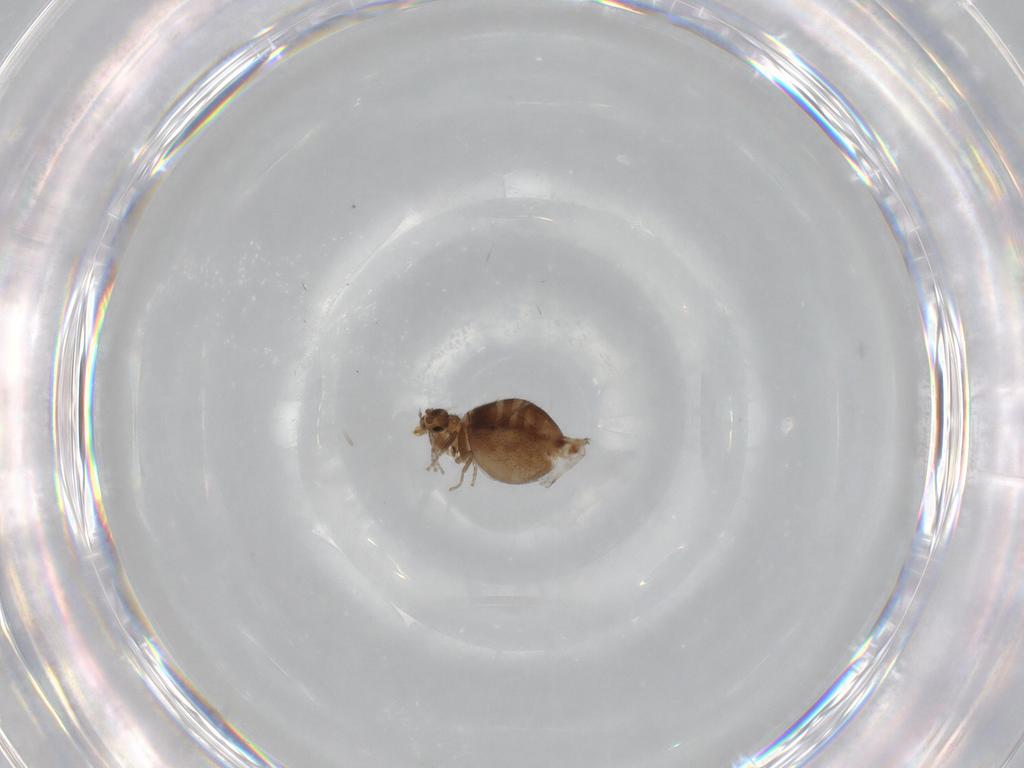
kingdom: Animalia
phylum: Arthropoda
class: Insecta
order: Diptera
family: Phoridae
